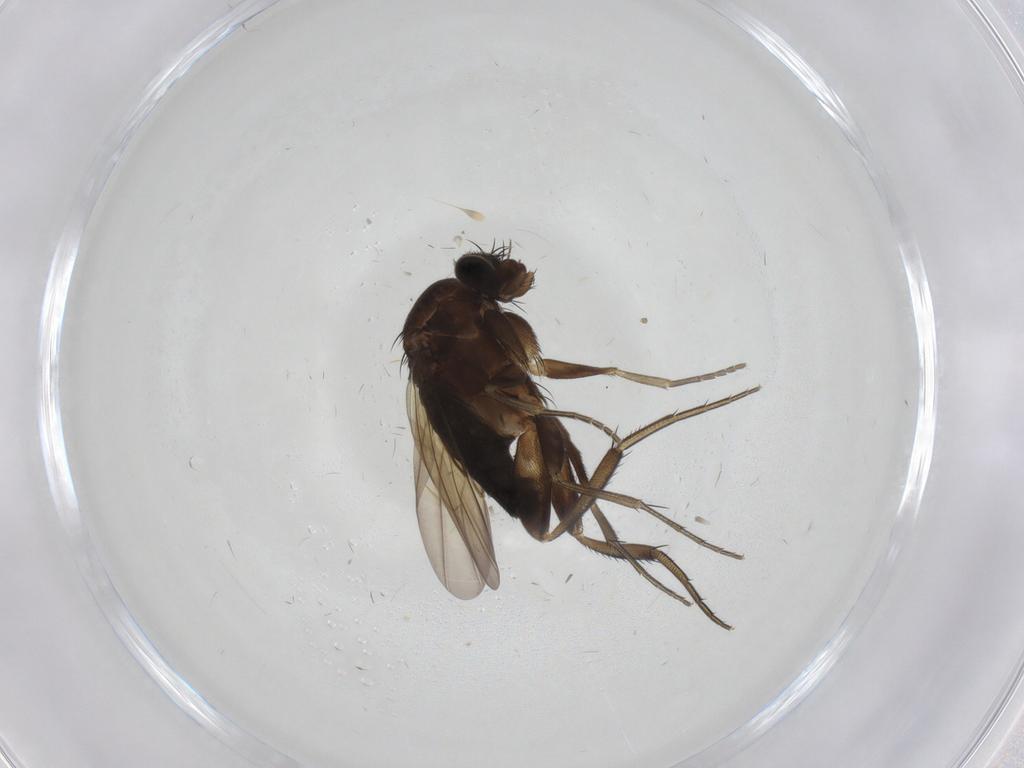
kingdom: Animalia
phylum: Arthropoda
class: Insecta
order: Diptera
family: Phoridae
